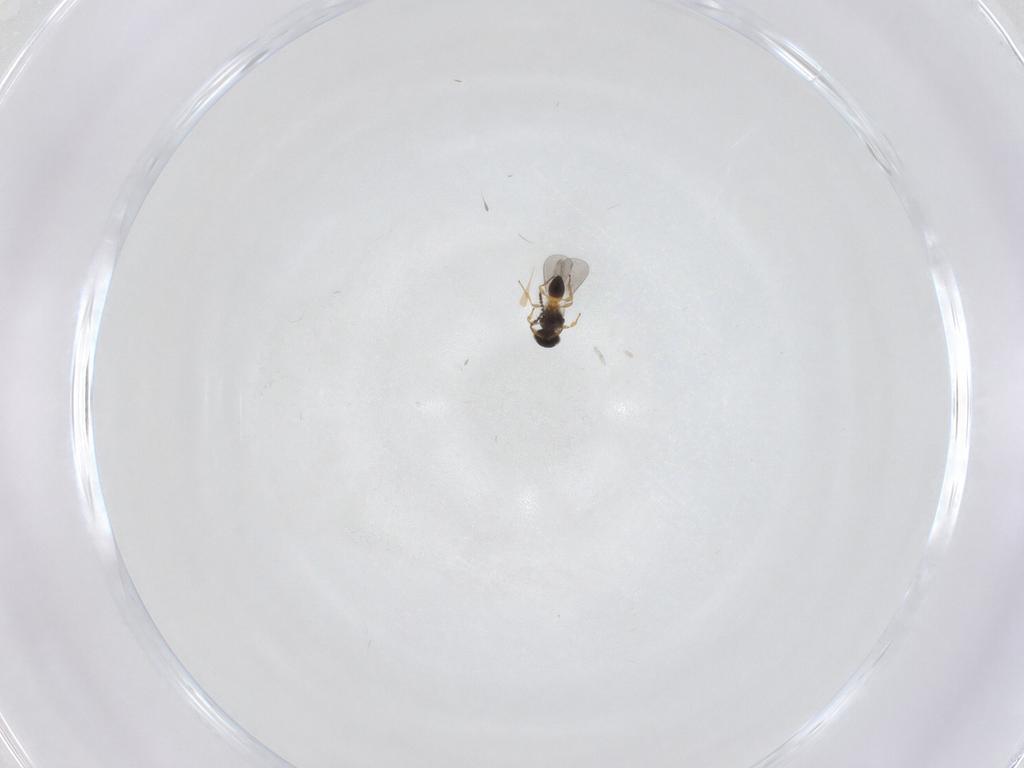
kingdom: Animalia
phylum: Arthropoda
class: Insecta
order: Hymenoptera
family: Platygastridae
